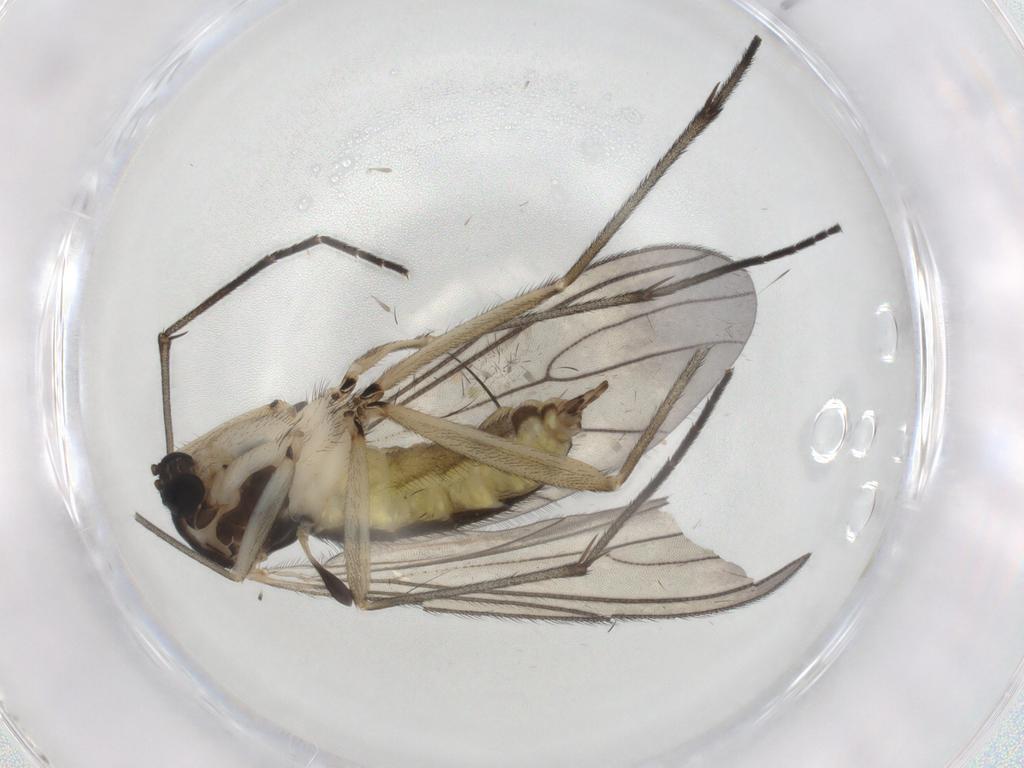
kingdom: Animalia
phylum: Arthropoda
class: Insecta
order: Diptera
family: Sciaridae
